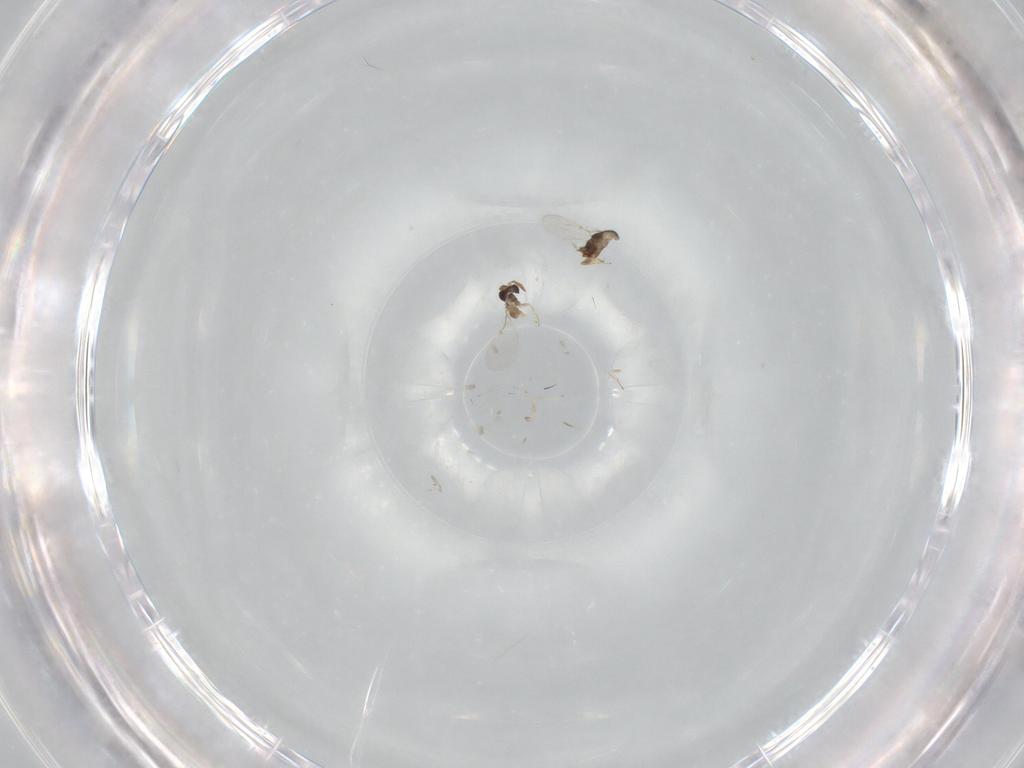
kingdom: Animalia
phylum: Arthropoda
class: Insecta
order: Hymenoptera
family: Encyrtidae
